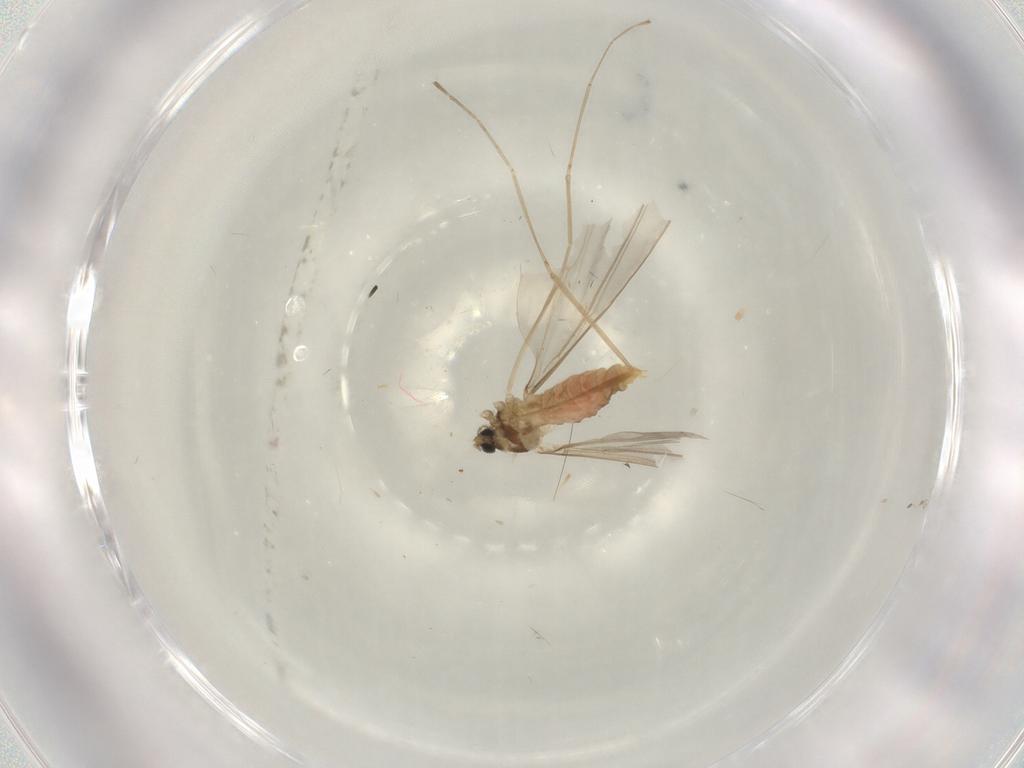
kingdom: Animalia
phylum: Arthropoda
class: Insecta
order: Diptera
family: Cecidomyiidae
